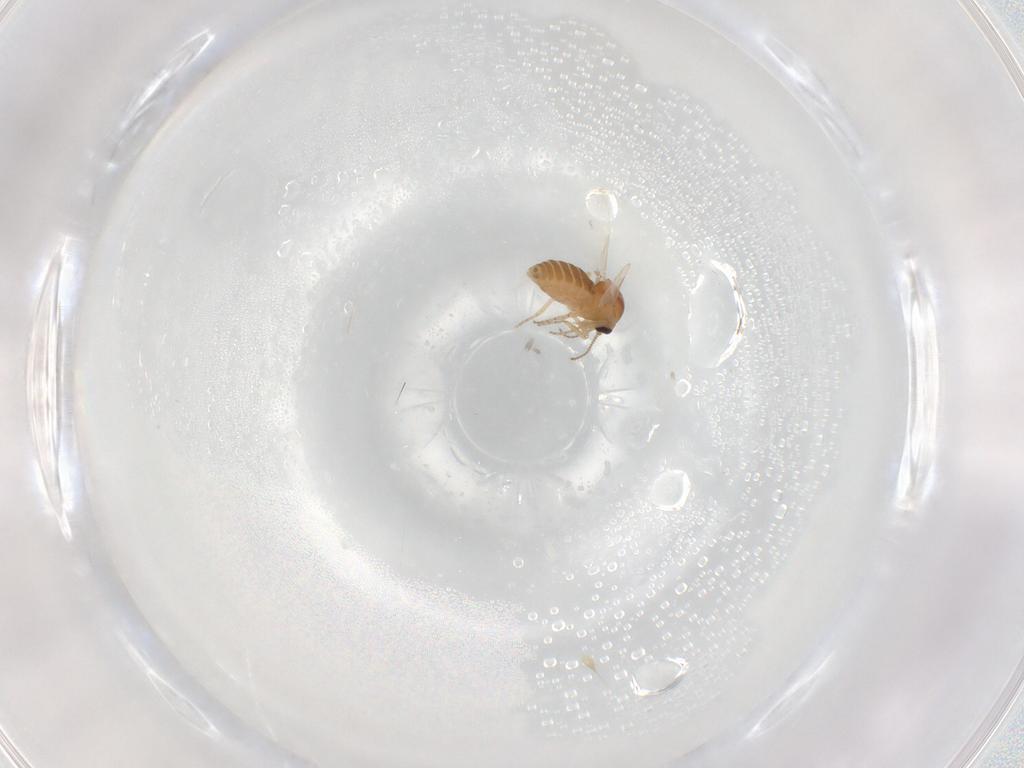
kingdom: Animalia
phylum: Arthropoda
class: Insecta
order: Diptera
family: Ceratopogonidae
